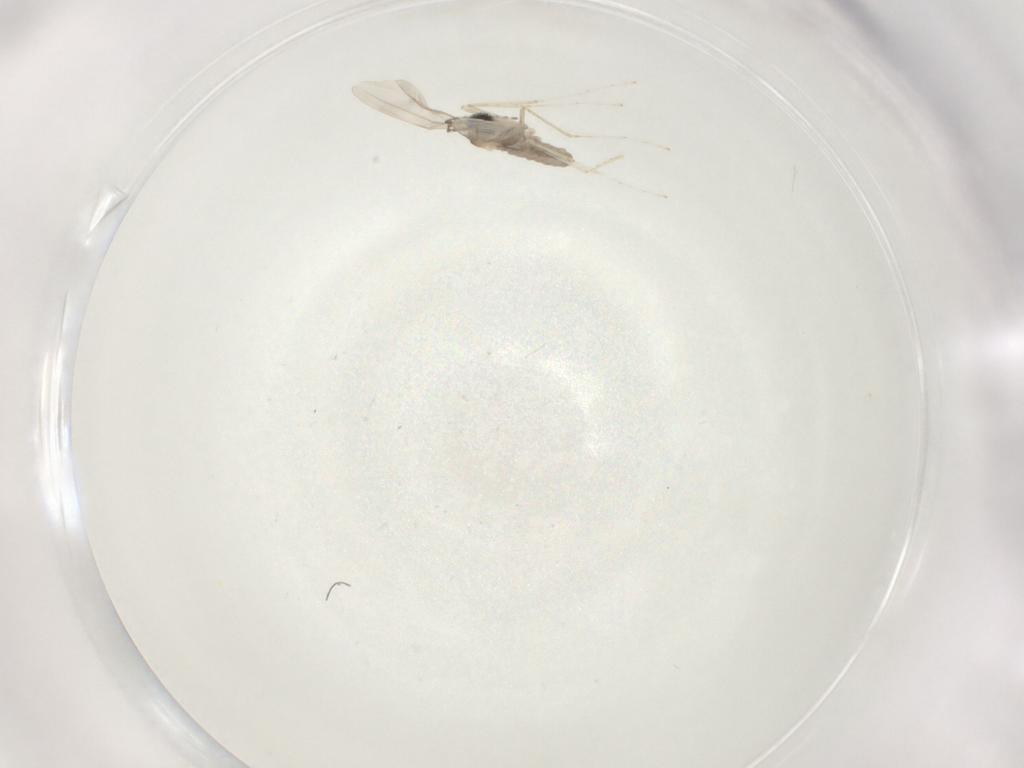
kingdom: Animalia
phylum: Arthropoda
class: Insecta
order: Diptera
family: Cecidomyiidae
